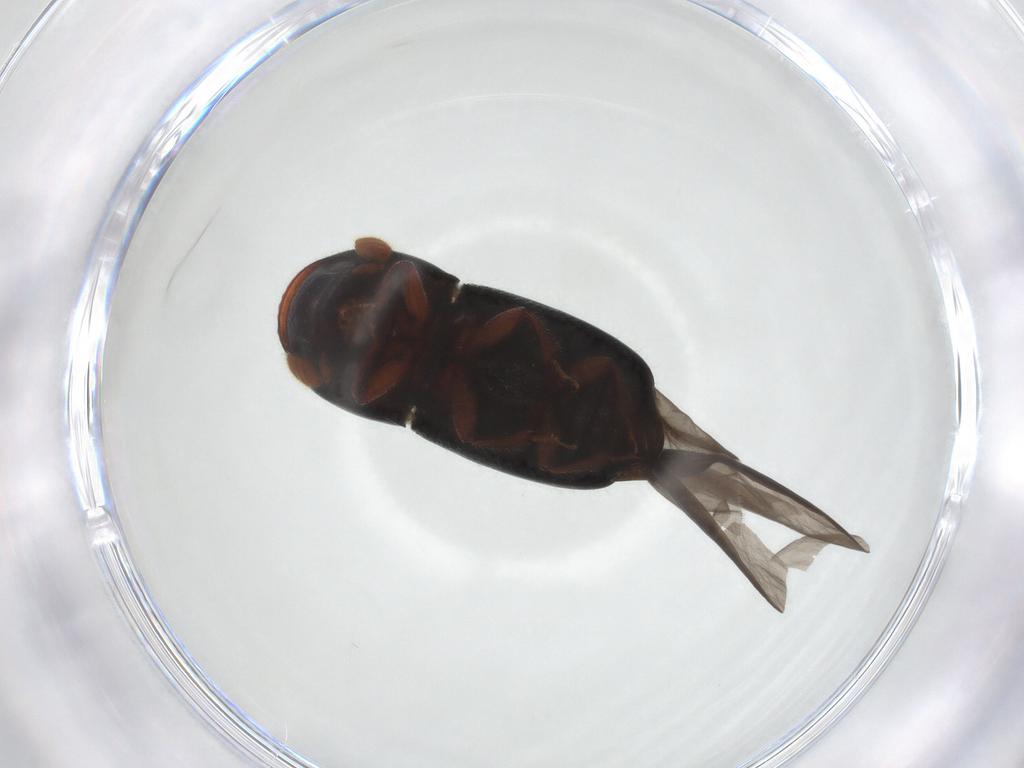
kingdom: Animalia
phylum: Arthropoda
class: Insecta
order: Coleoptera
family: Curculionidae
